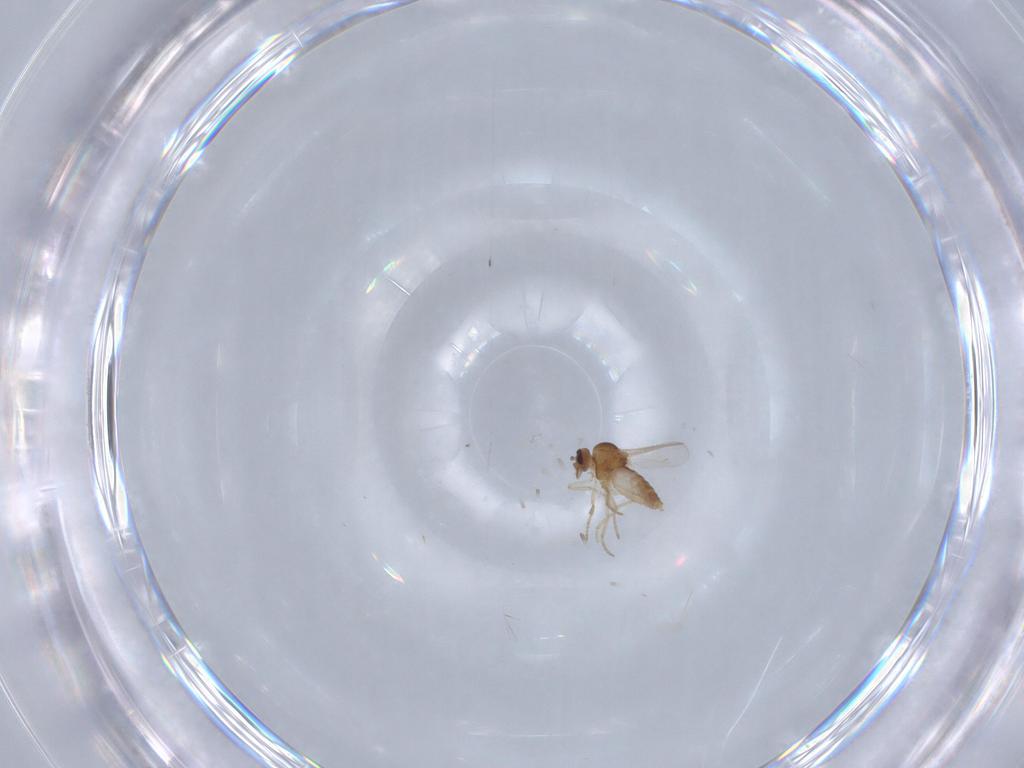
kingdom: Animalia
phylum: Arthropoda
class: Insecta
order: Diptera
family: Ceratopogonidae
